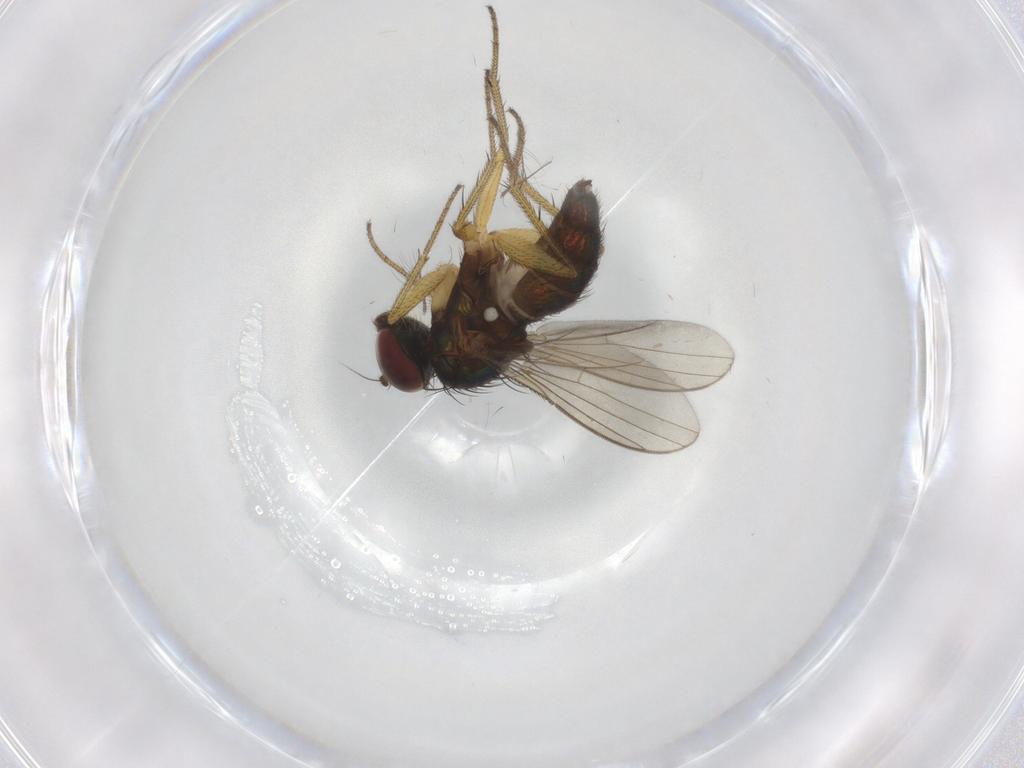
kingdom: Animalia
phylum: Arthropoda
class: Insecta
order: Diptera
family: Dolichopodidae
